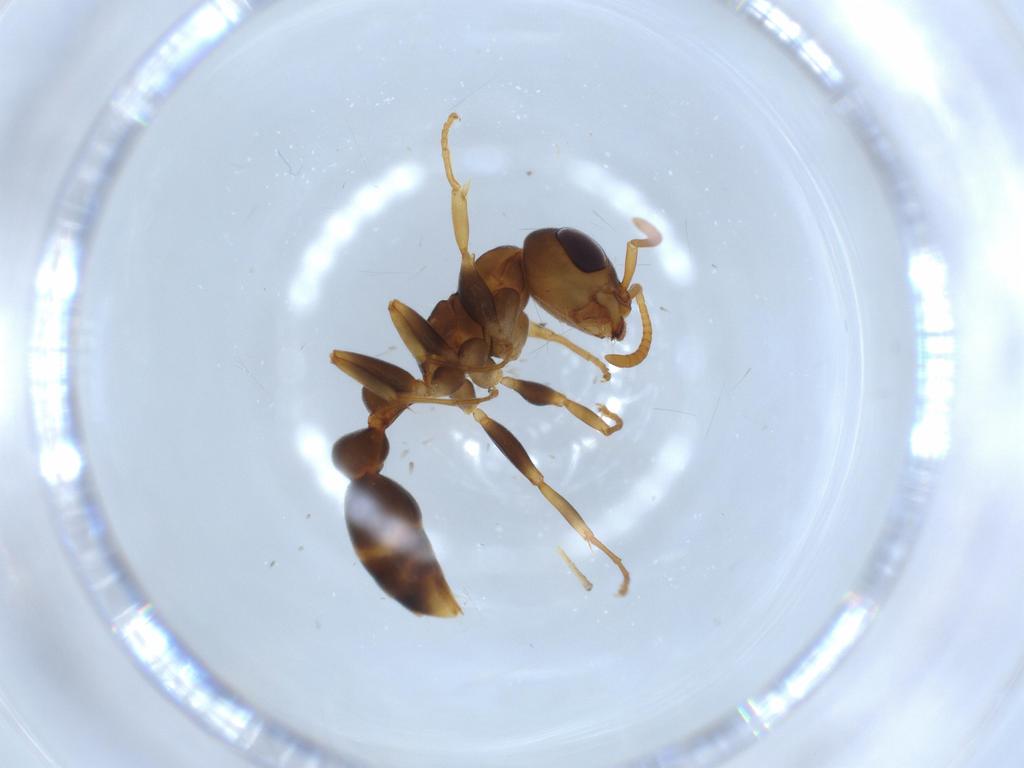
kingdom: Animalia
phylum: Arthropoda
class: Insecta
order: Hymenoptera
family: Formicidae
